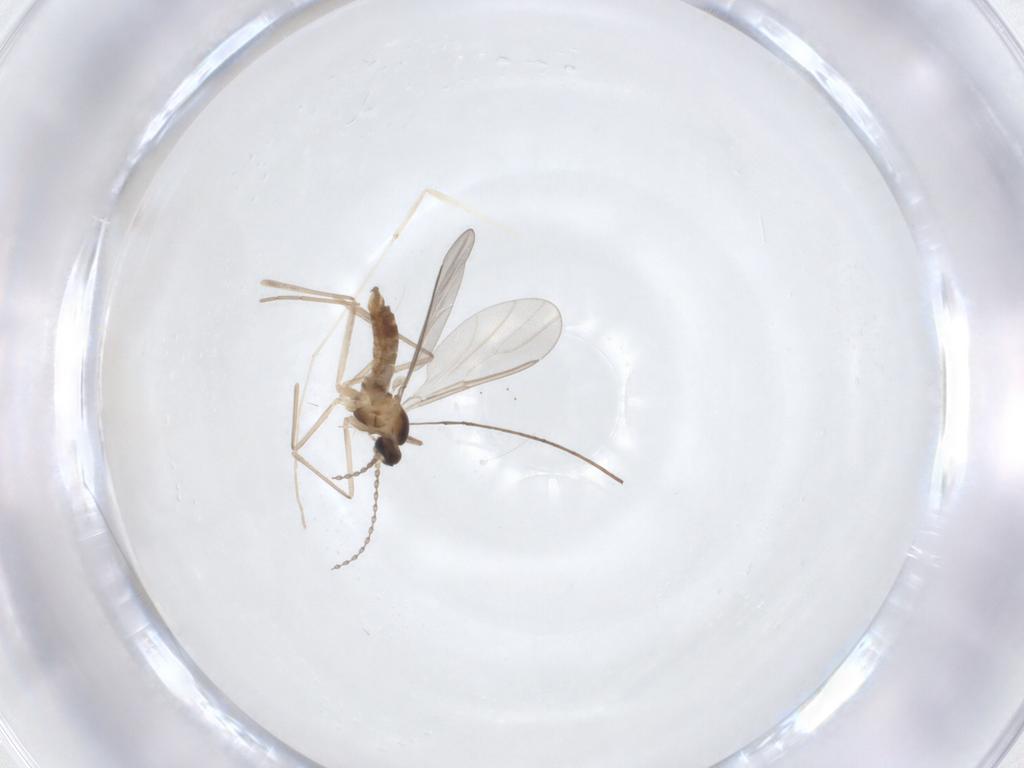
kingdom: Animalia
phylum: Arthropoda
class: Insecta
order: Diptera
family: Cecidomyiidae
